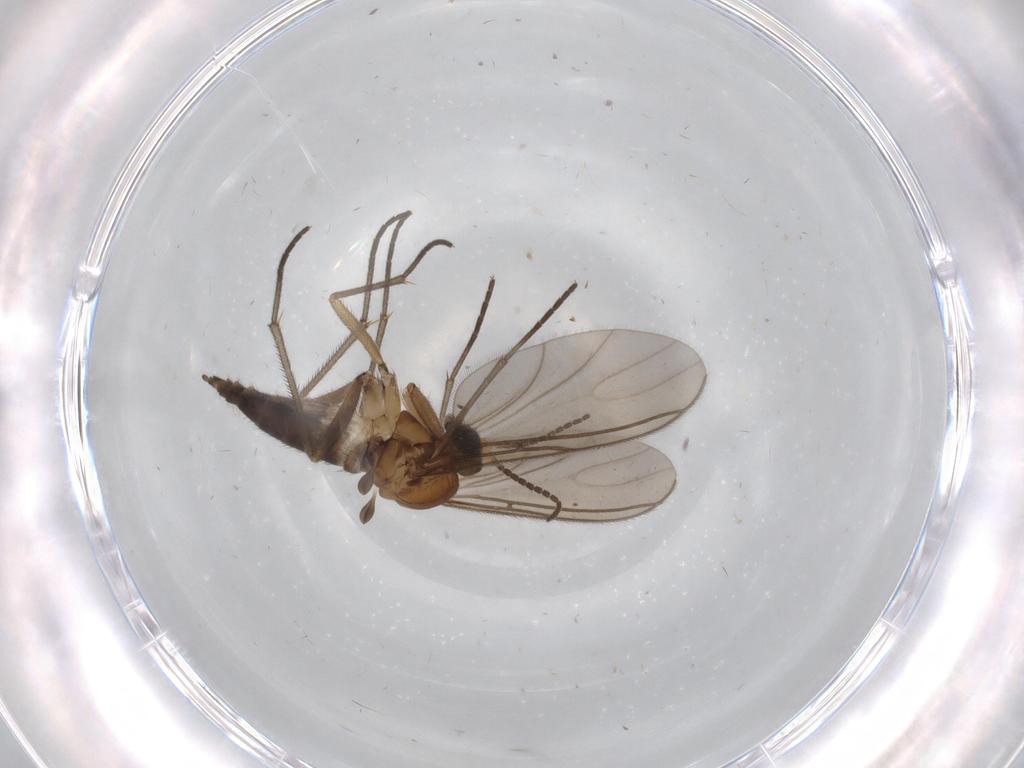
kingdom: Animalia
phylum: Arthropoda
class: Insecta
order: Diptera
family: Sciaridae
